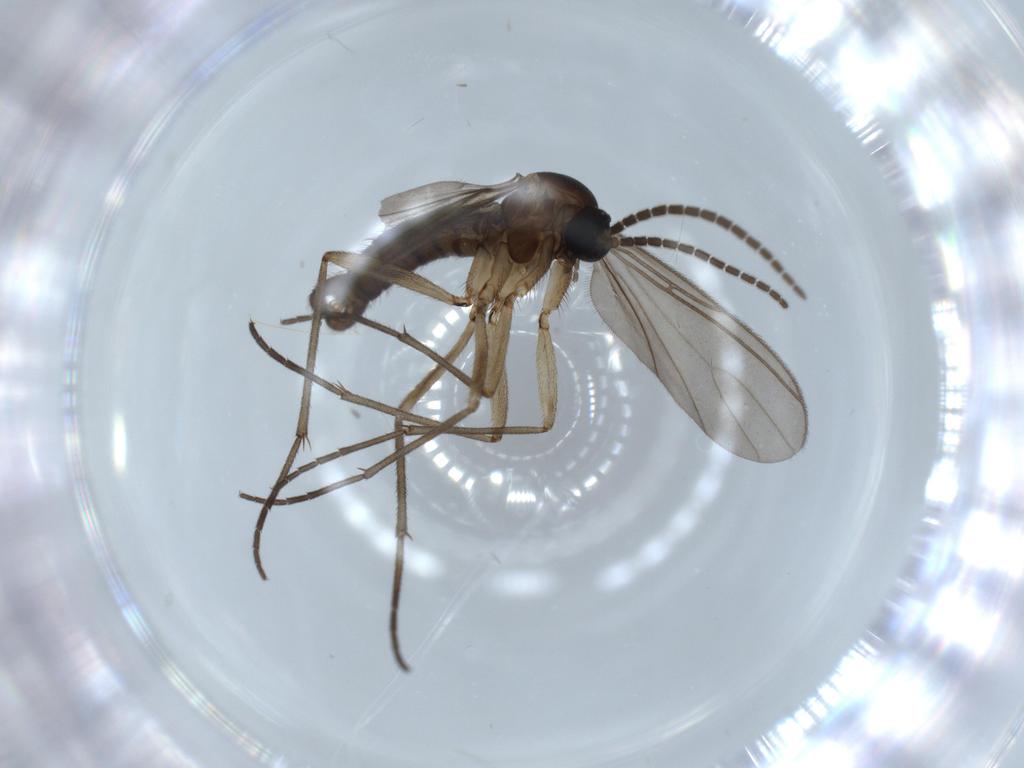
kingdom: Animalia
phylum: Arthropoda
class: Insecta
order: Diptera
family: Sciaridae
